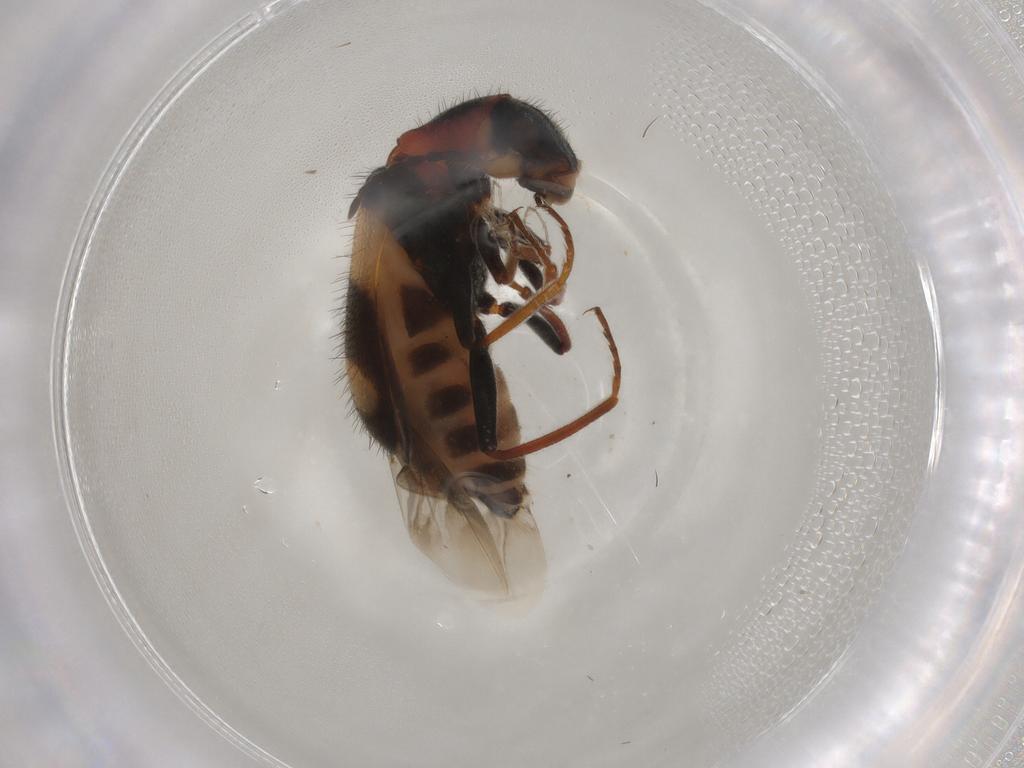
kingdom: Animalia
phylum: Arthropoda
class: Insecta
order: Coleoptera
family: Melyridae
